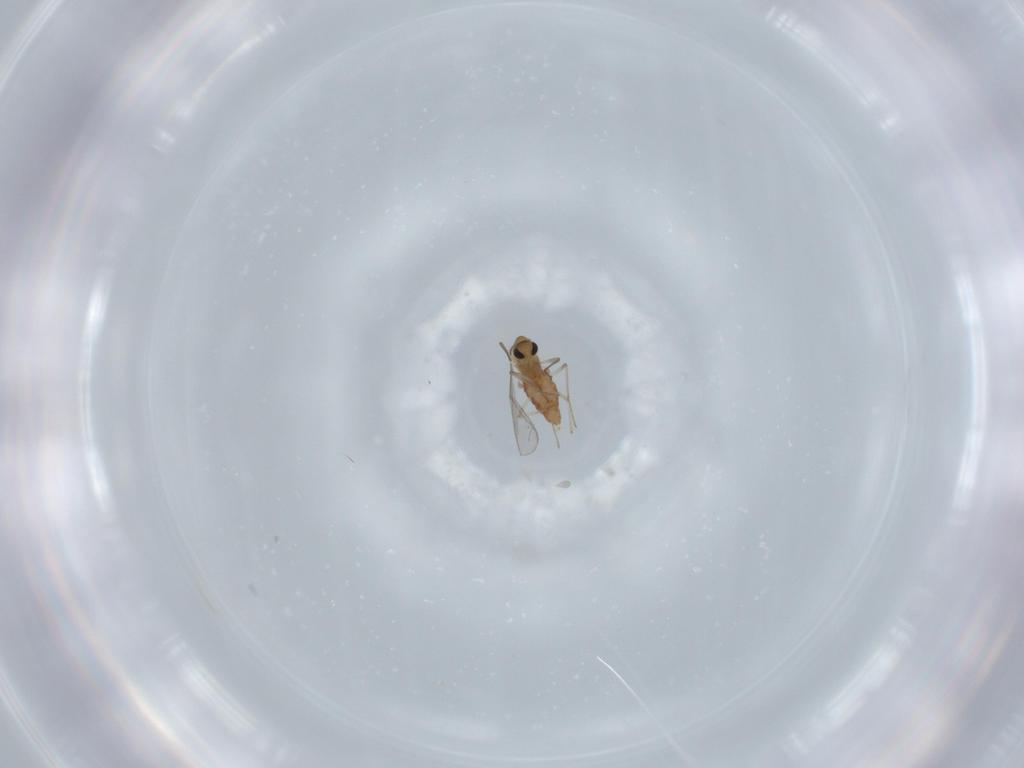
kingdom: Animalia
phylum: Arthropoda
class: Insecta
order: Diptera
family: Chironomidae
